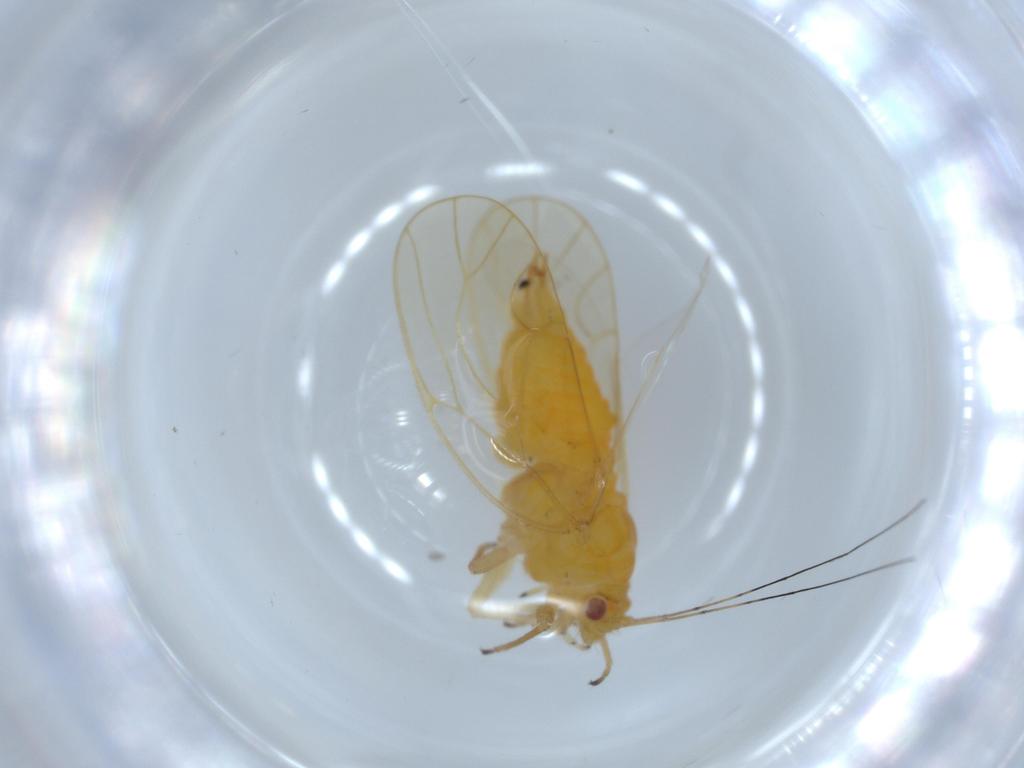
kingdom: Animalia
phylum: Arthropoda
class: Insecta
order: Hemiptera
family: Psyllidae
